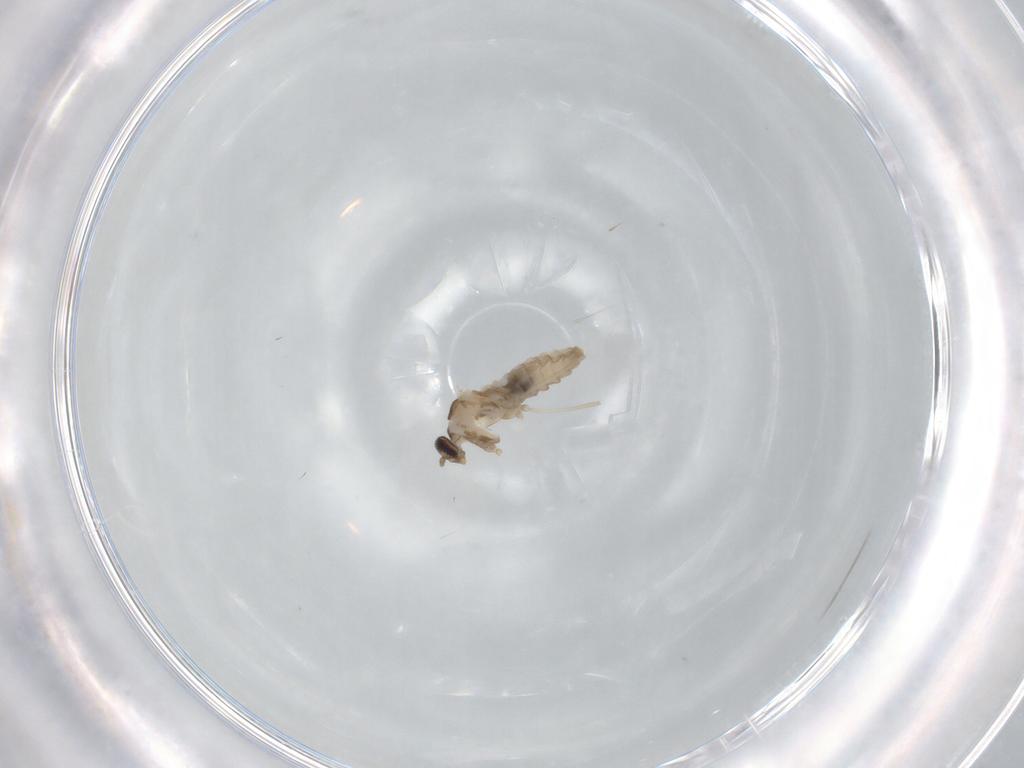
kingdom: Animalia
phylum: Arthropoda
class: Insecta
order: Diptera
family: Cecidomyiidae
